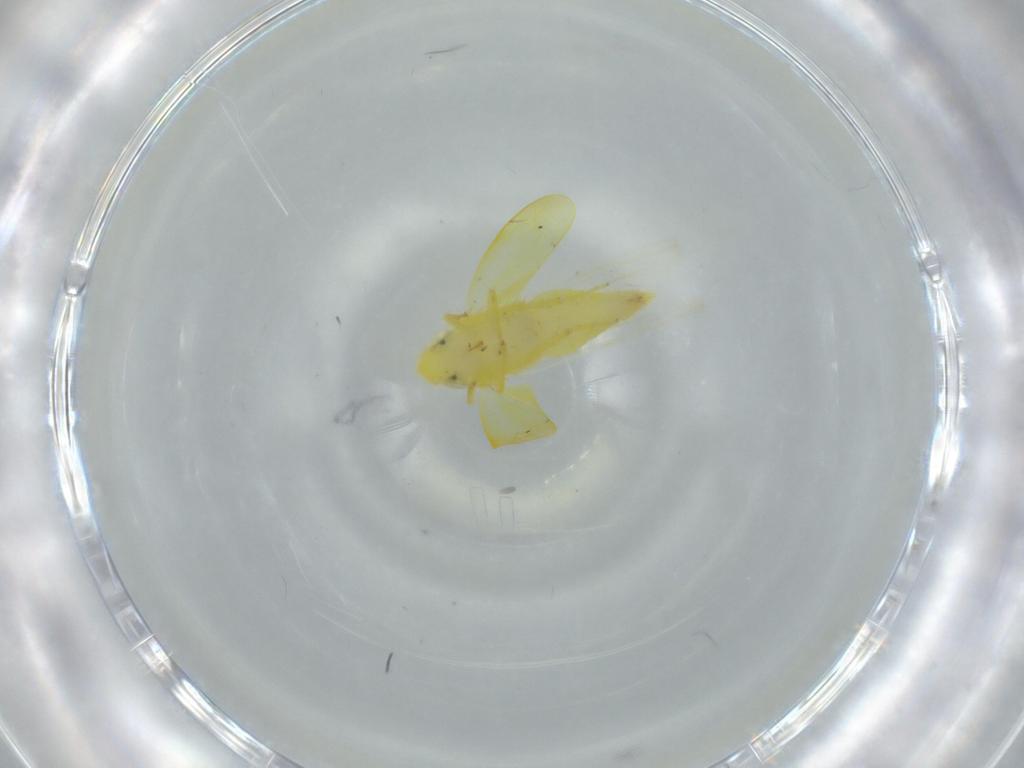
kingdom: Animalia
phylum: Arthropoda
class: Insecta
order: Hemiptera
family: Cicadellidae
